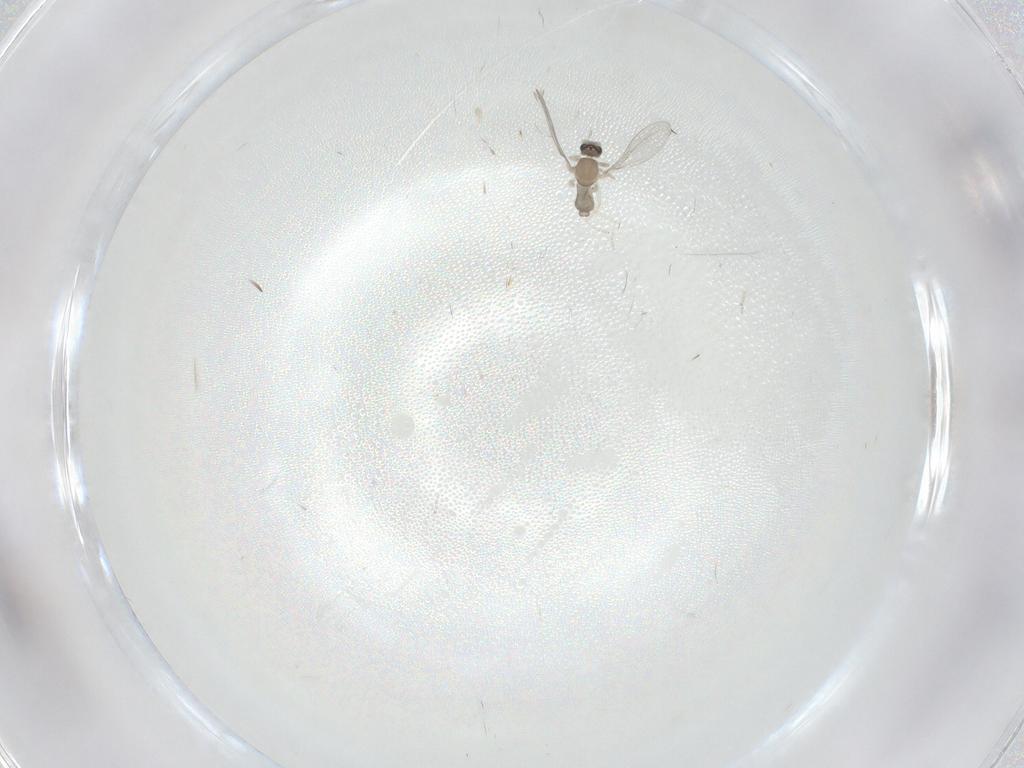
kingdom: Animalia
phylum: Arthropoda
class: Insecta
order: Diptera
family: Cecidomyiidae
